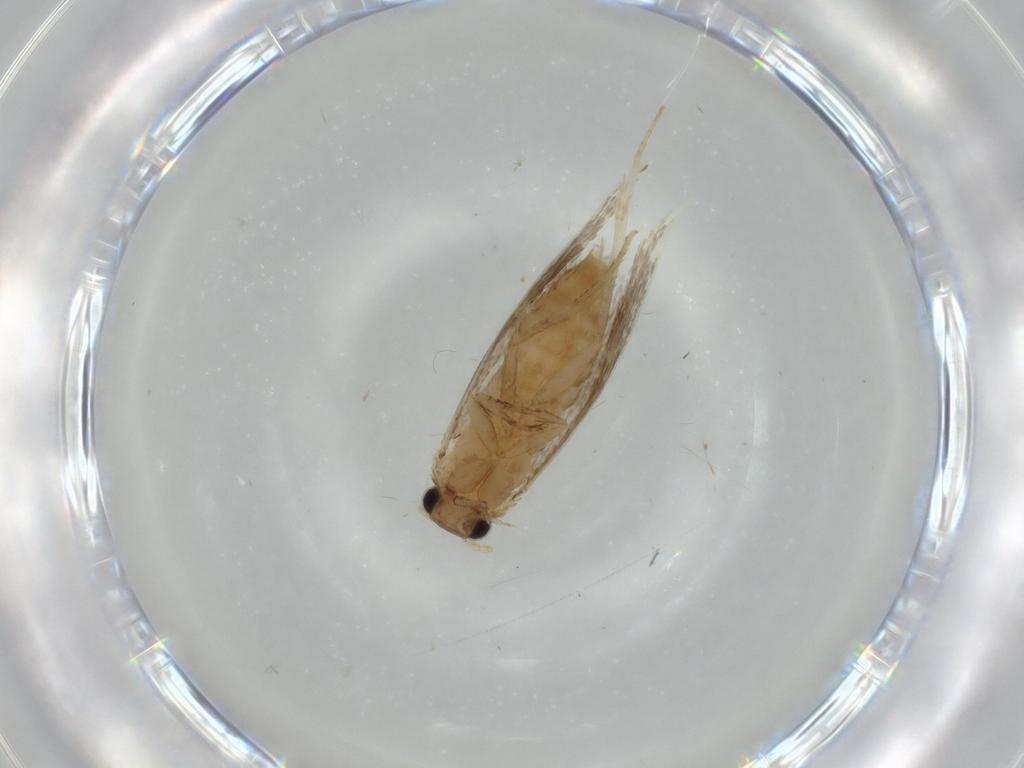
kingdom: Animalia
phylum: Arthropoda
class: Insecta
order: Lepidoptera
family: Tineidae
